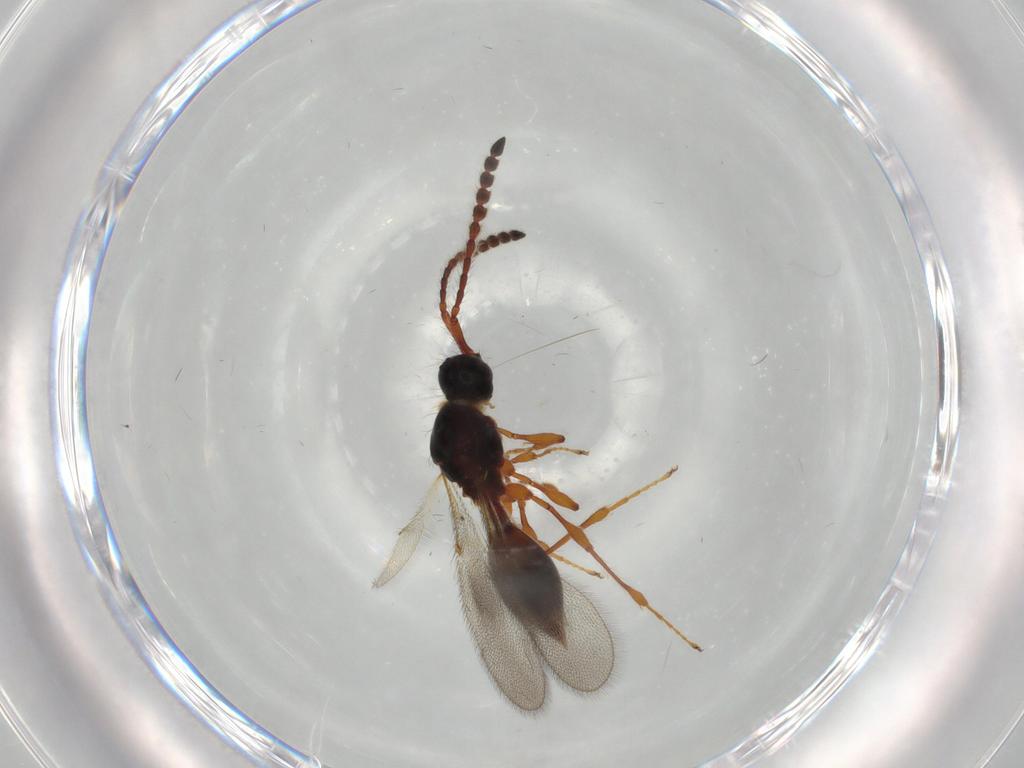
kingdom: Animalia
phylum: Arthropoda
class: Insecta
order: Hymenoptera
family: Diapriidae
